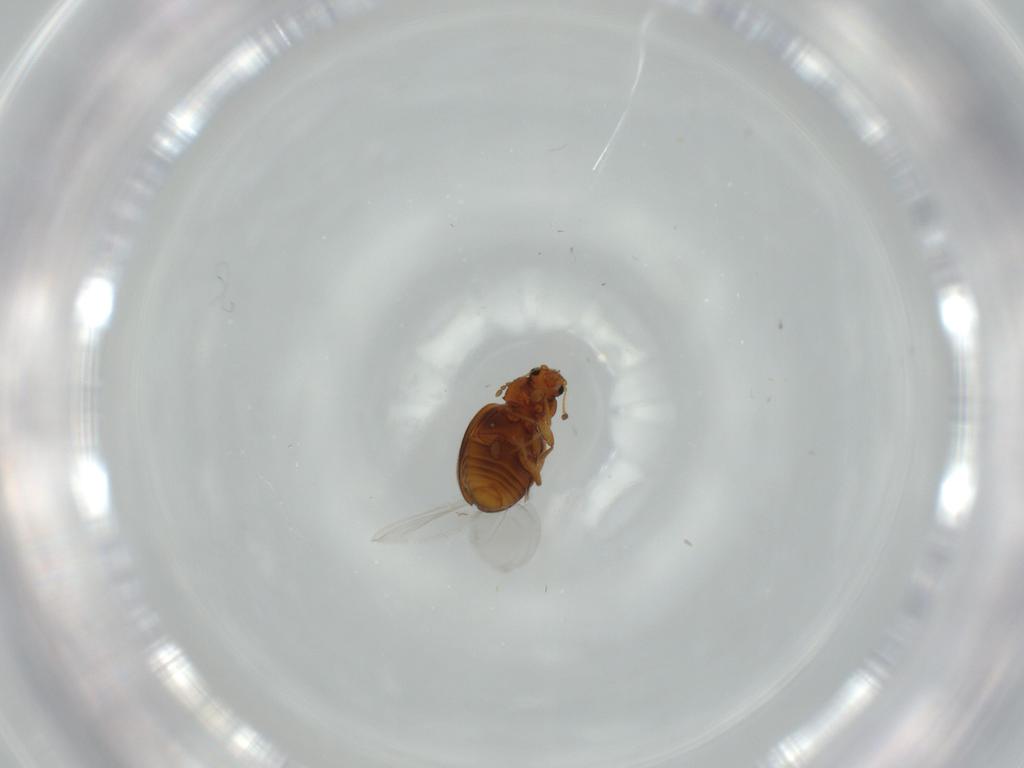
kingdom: Animalia
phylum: Arthropoda
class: Insecta
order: Coleoptera
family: Latridiidae
